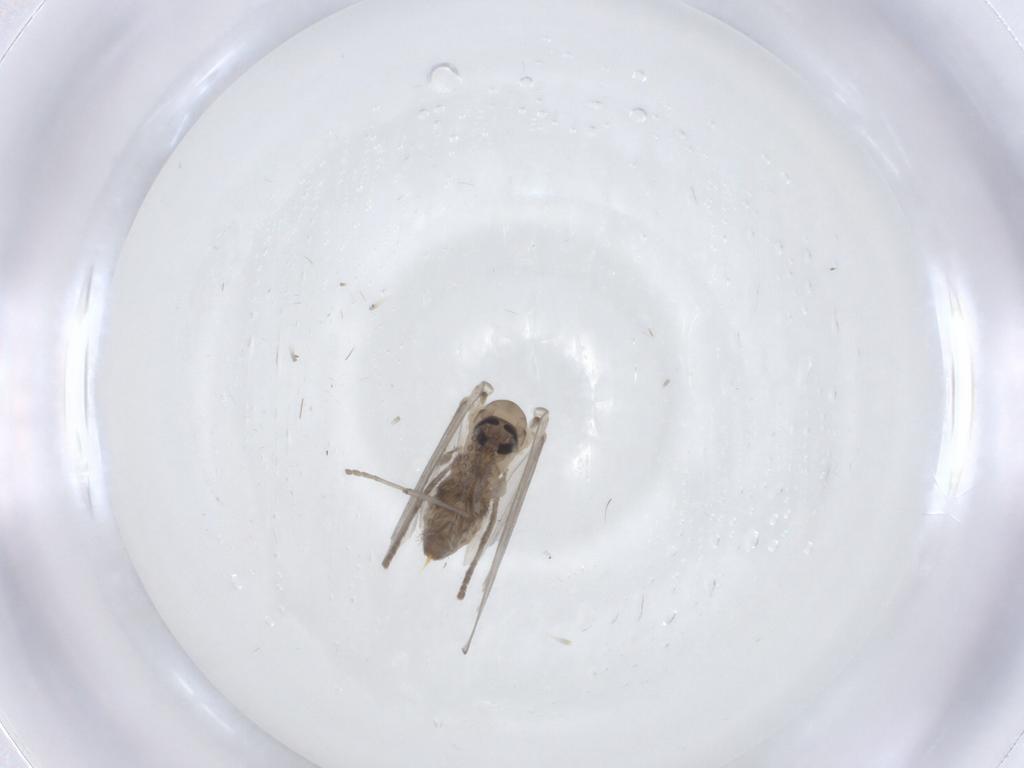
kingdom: Animalia
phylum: Arthropoda
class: Insecta
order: Diptera
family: Psychodidae
